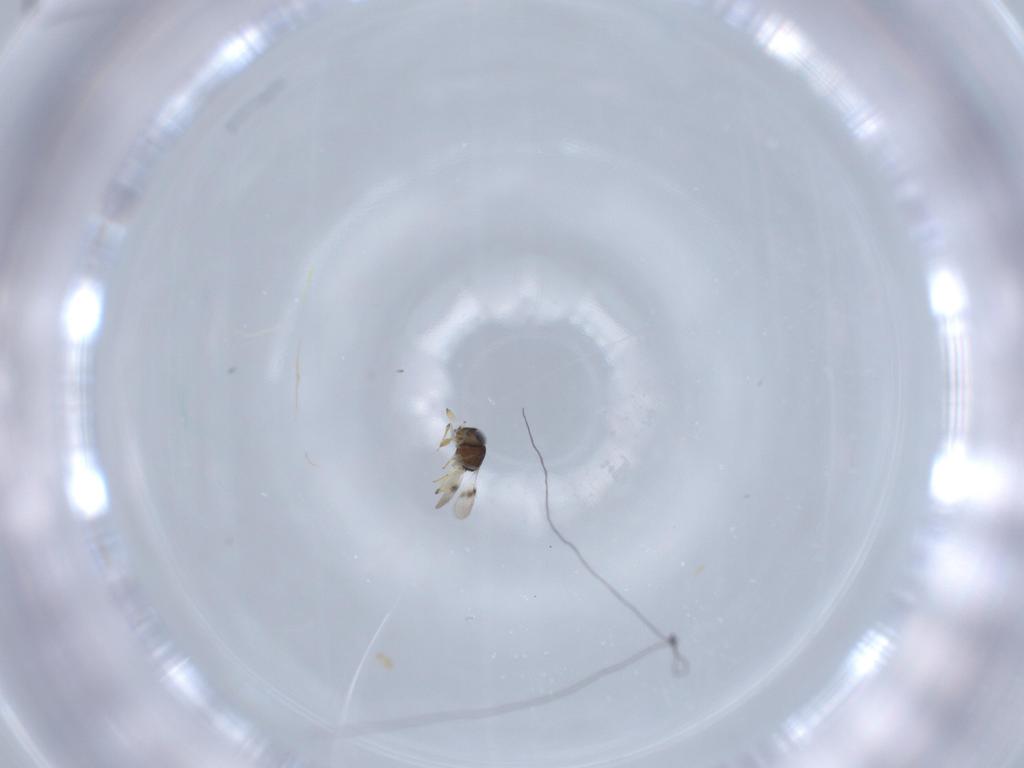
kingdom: Animalia
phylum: Arthropoda
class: Insecta
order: Hymenoptera
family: Scelionidae
